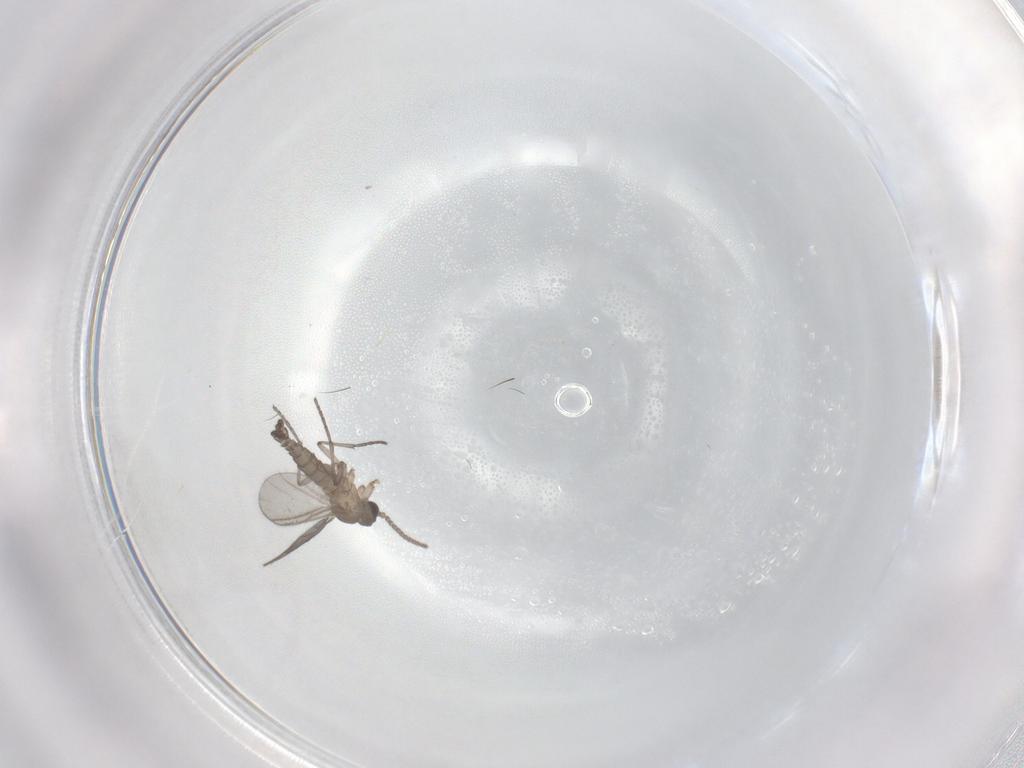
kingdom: Animalia
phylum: Arthropoda
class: Insecta
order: Diptera
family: Sciaridae
